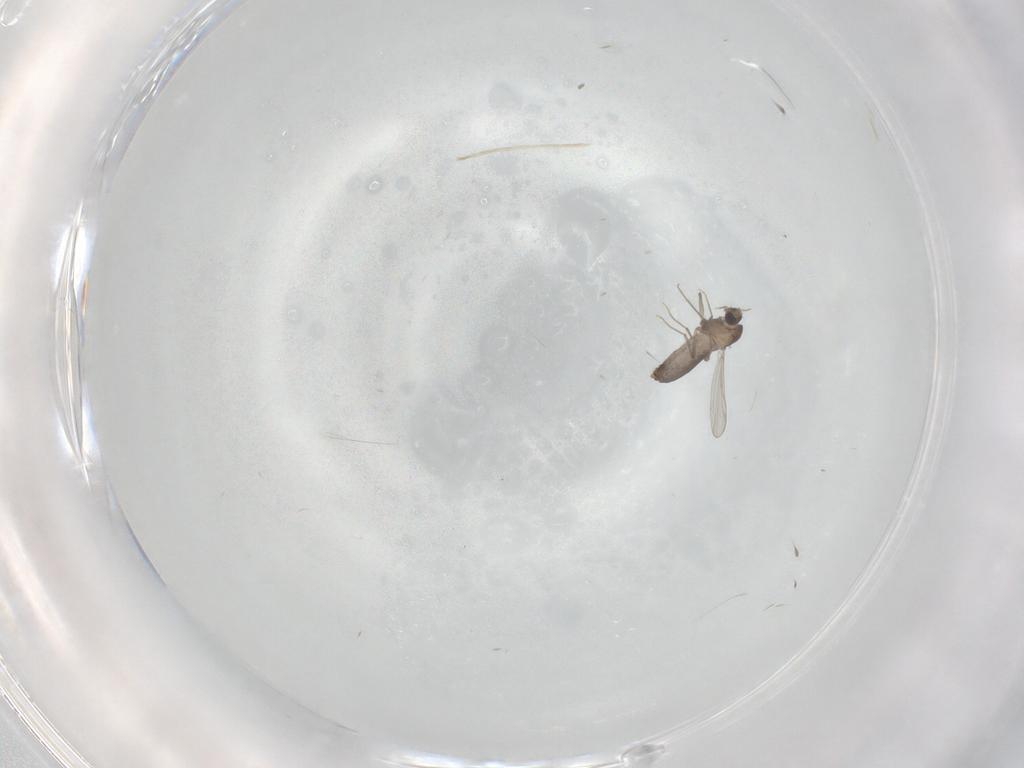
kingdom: Animalia
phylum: Arthropoda
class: Insecta
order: Diptera
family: Chironomidae
